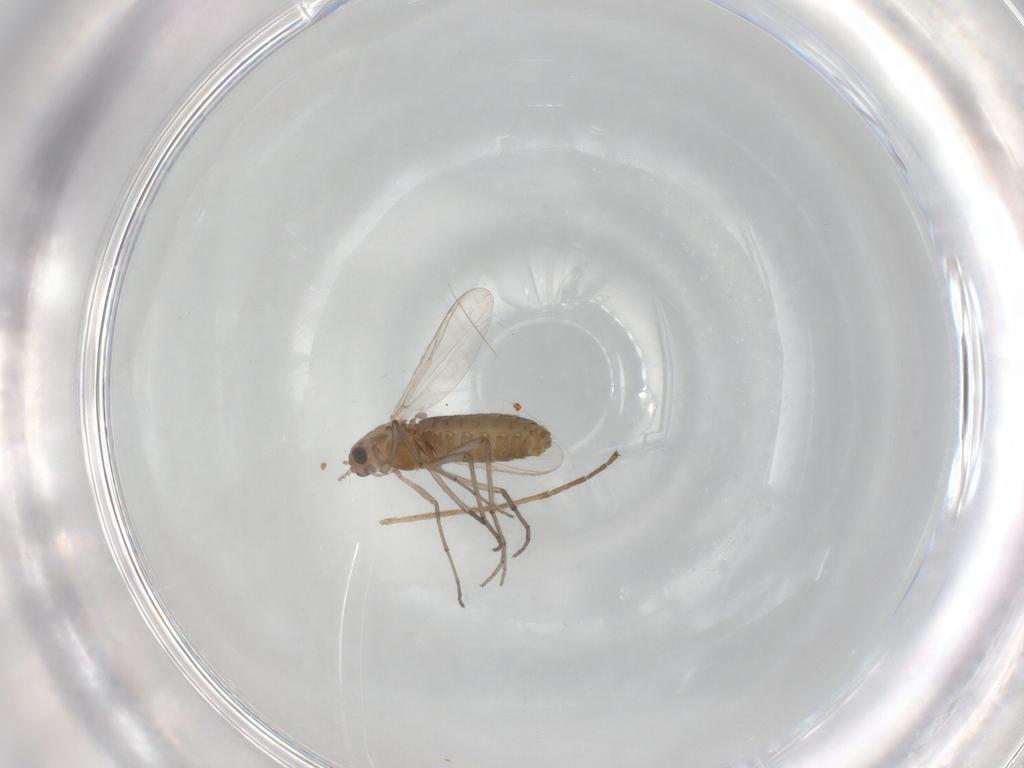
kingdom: Animalia
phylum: Arthropoda
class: Insecta
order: Diptera
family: Chironomidae
